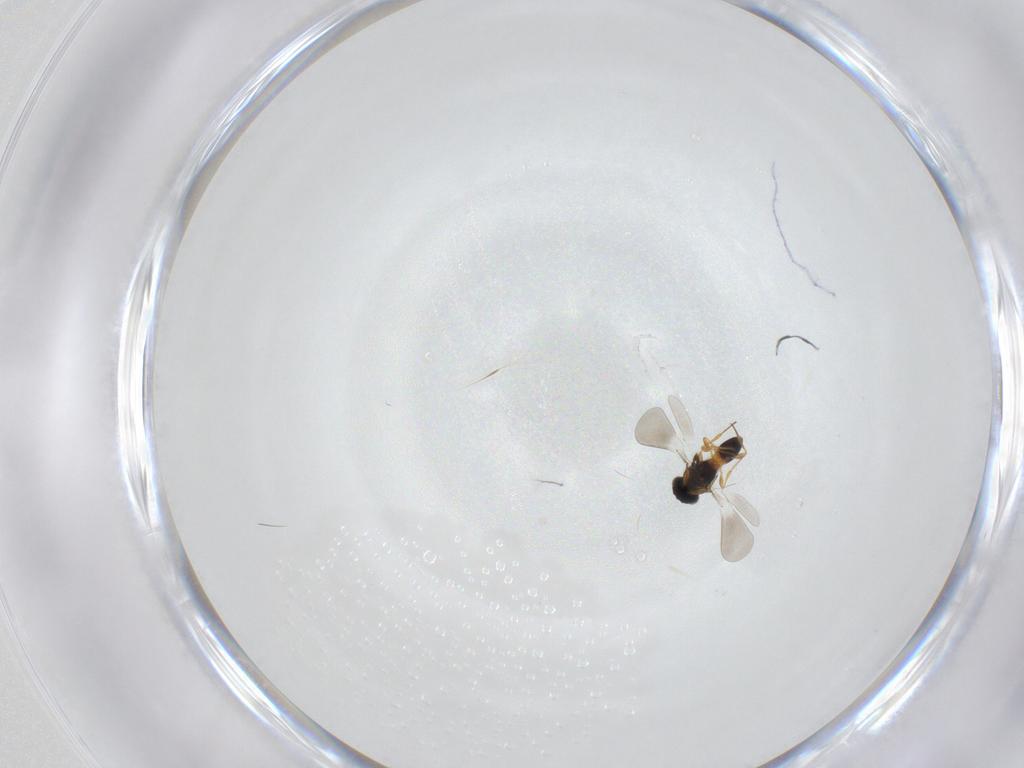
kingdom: Animalia
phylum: Arthropoda
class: Insecta
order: Hymenoptera
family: Platygastridae
